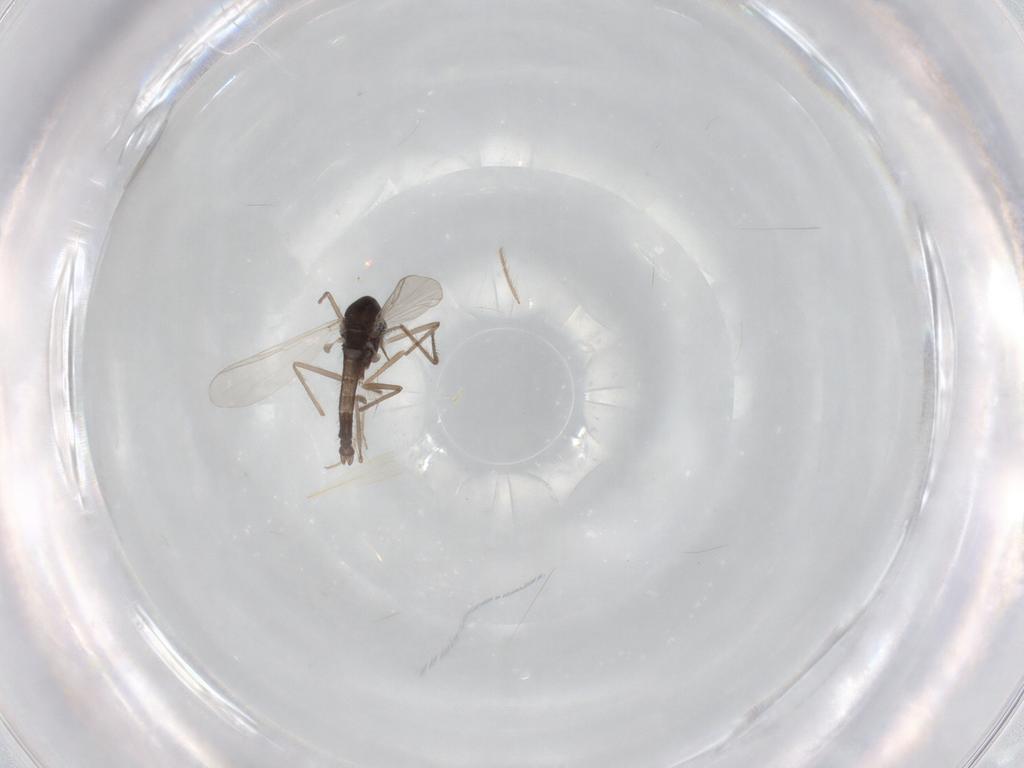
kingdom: Animalia
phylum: Arthropoda
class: Insecta
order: Diptera
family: Chironomidae
